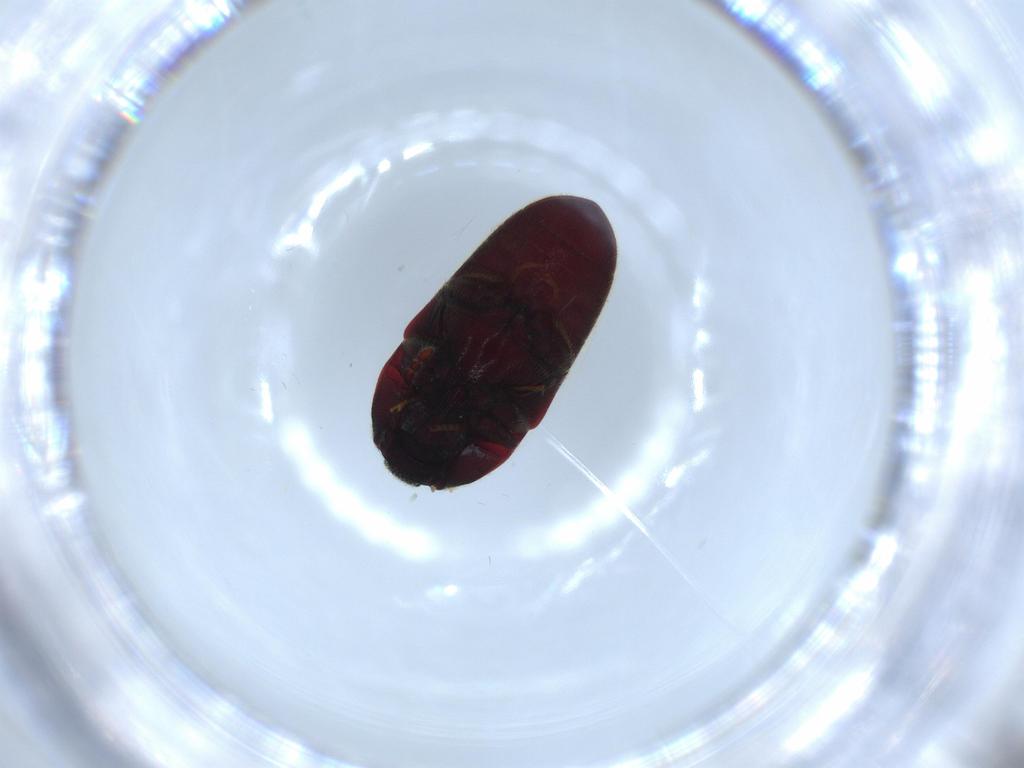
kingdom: Animalia
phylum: Arthropoda
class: Insecta
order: Coleoptera
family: Throscidae
